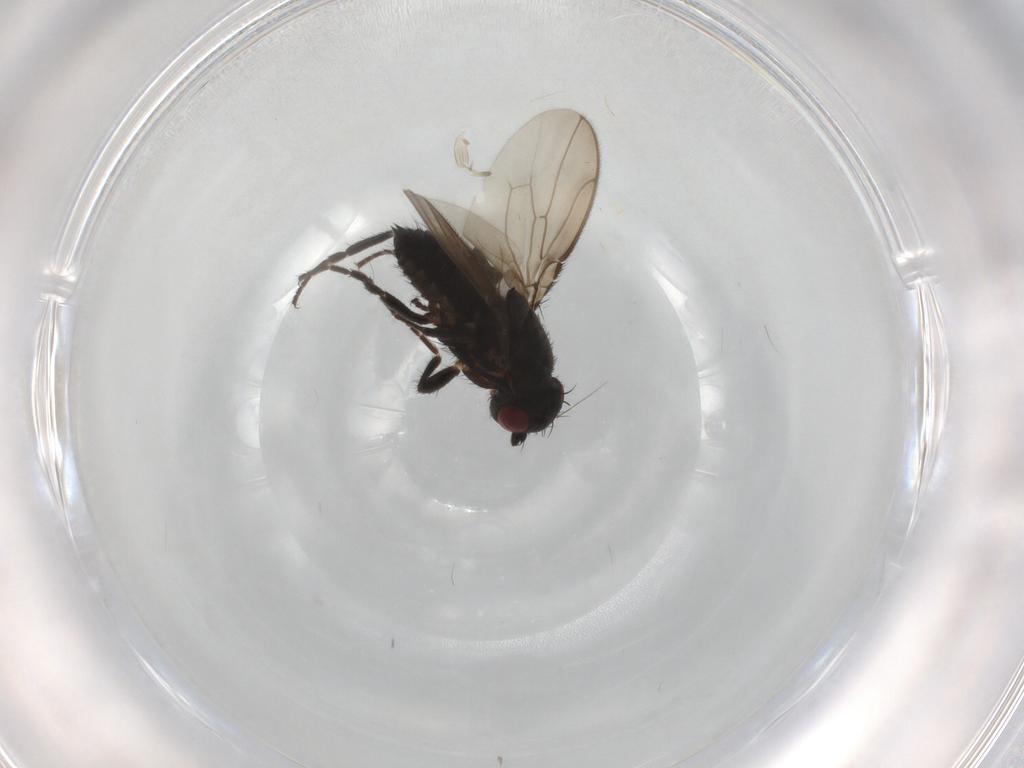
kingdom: Animalia
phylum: Arthropoda
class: Insecta
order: Diptera
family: Sphaeroceridae
